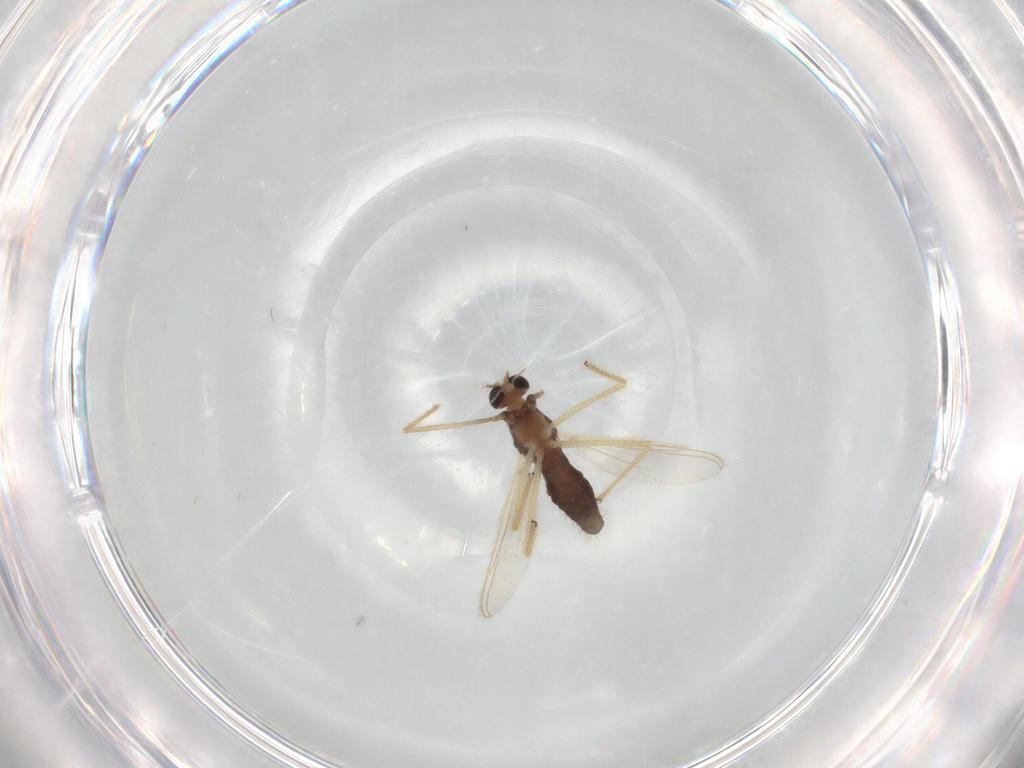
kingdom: Animalia
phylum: Arthropoda
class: Insecta
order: Diptera
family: Chironomidae
